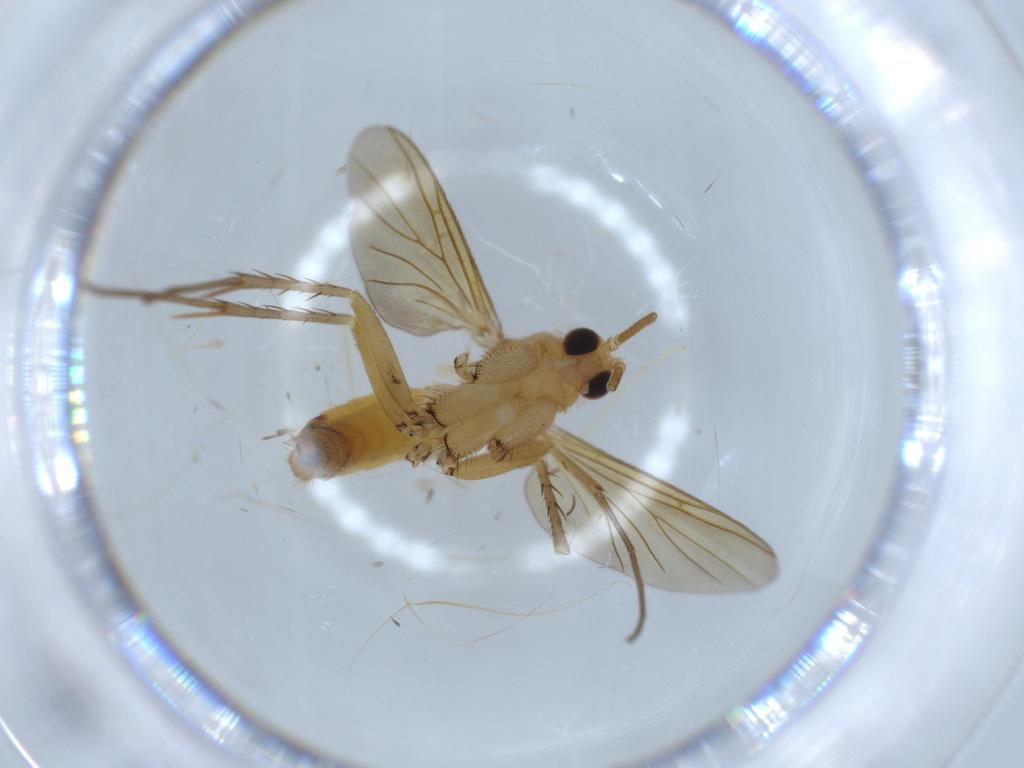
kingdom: Animalia
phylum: Arthropoda
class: Insecta
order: Diptera
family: Mycetophilidae
